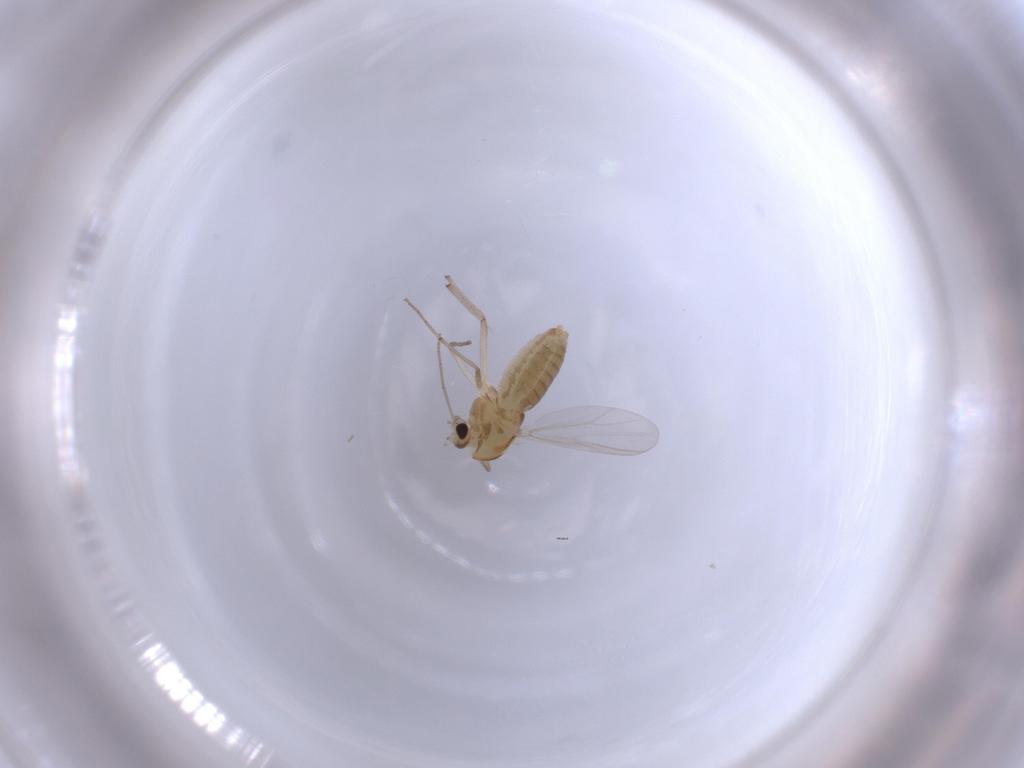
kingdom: Animalia
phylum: Arthropoda
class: Insecta
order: Diptera
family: Chironomidae
